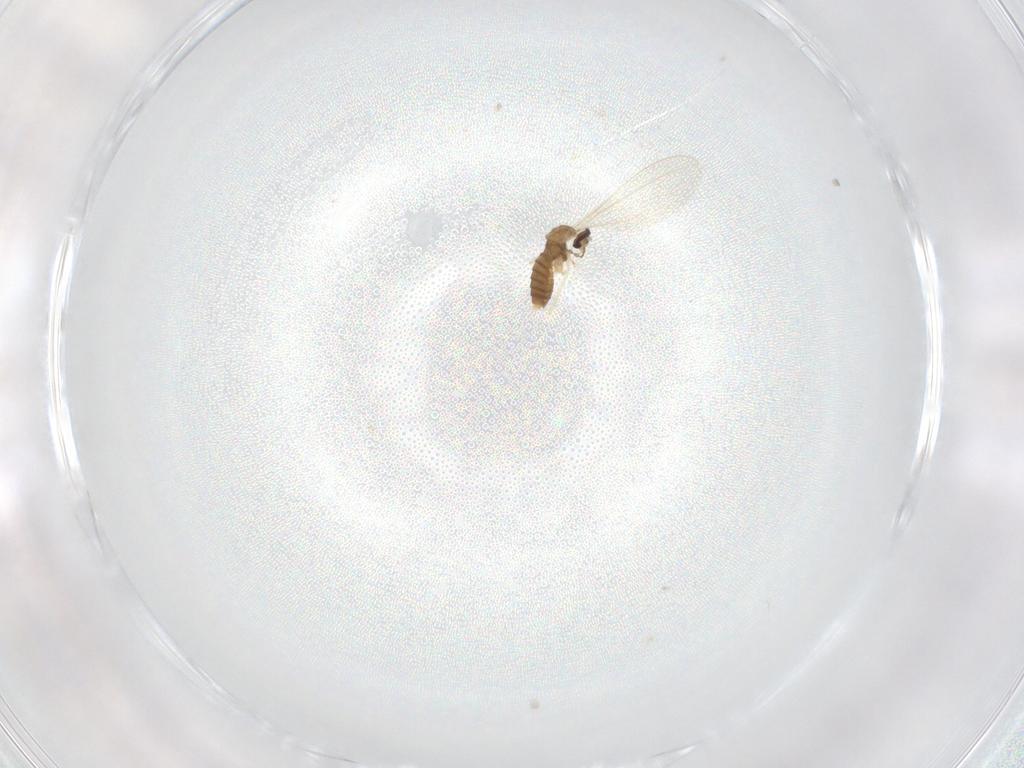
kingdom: Animalia
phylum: Arthropoda
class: Insecta
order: Diptera
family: Cecidomyiidae
